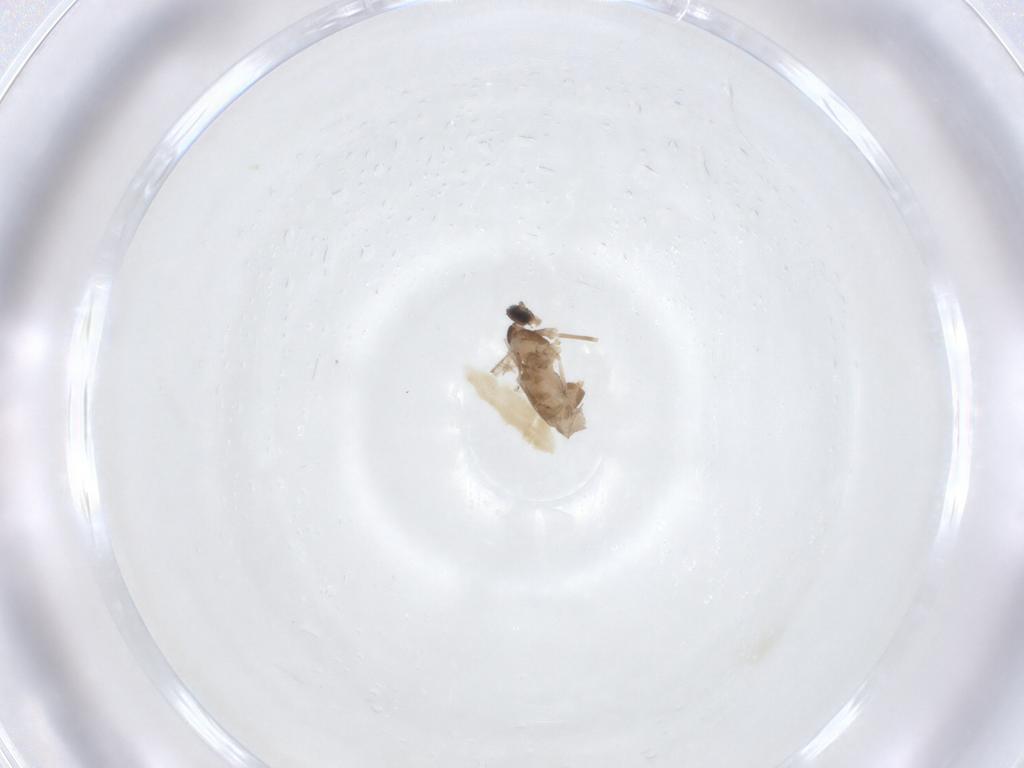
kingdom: Animalia
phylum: Arthropoda
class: Insecta
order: Diptera
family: Cecidomyiidae
